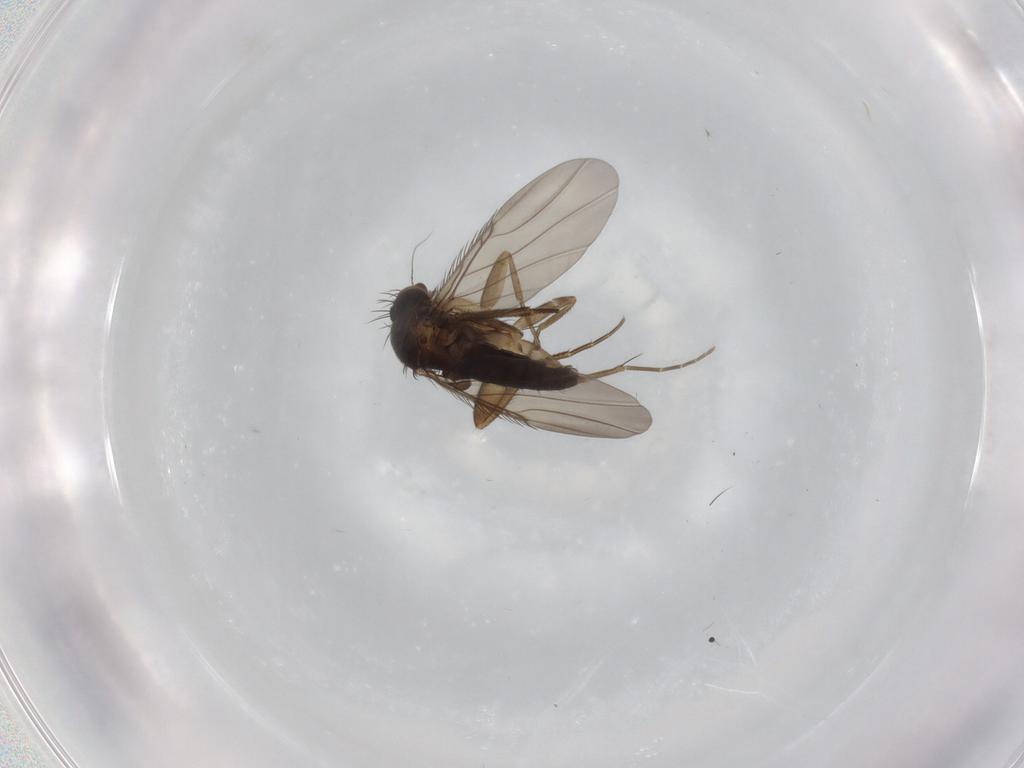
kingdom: Animalia
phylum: Arthropoda
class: Insecta
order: Diptera
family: Phoridae
